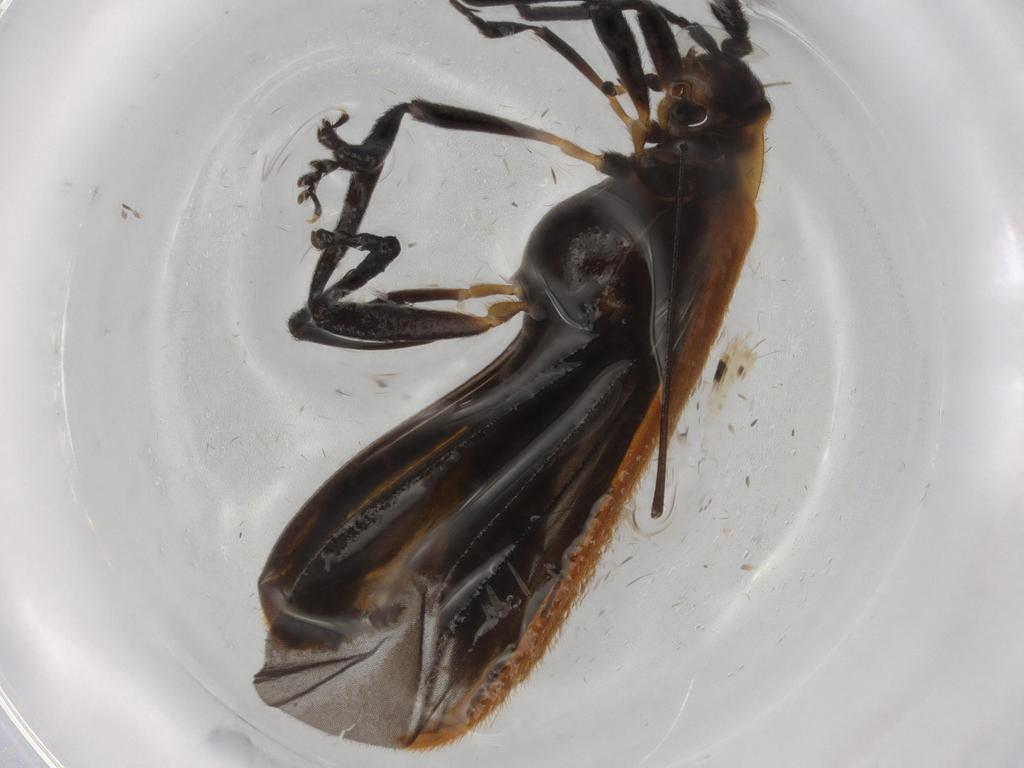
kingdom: Animalia
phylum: Arthropoda
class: Insecta
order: Coleoptera
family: Lycidae
